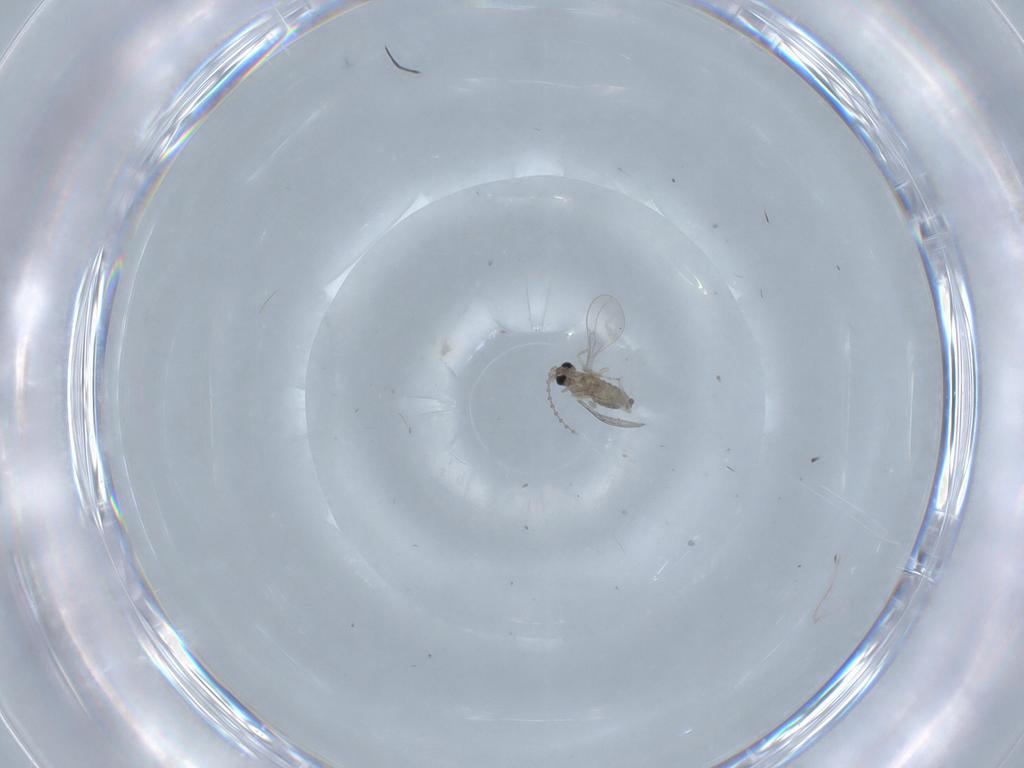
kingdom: Animalia
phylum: Arthropoda
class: Insecta
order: Diptera
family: Cecidomyiidae
